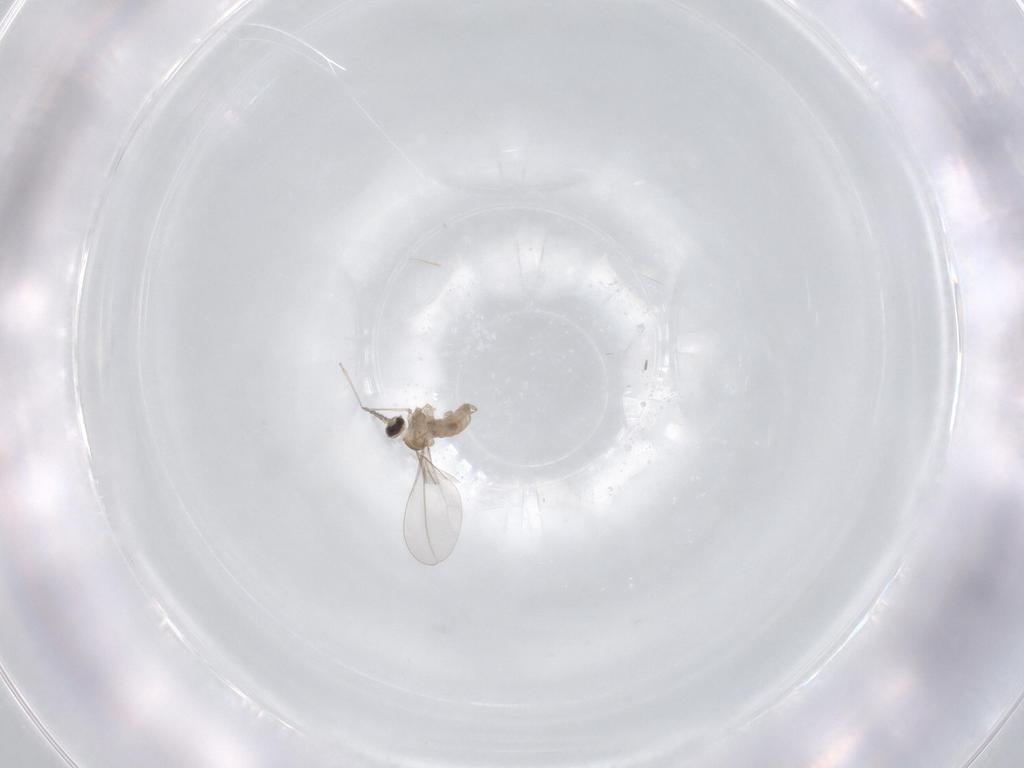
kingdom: Animalia
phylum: Arthropoda
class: Insecta
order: Diptera
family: Cecidomyiidae
